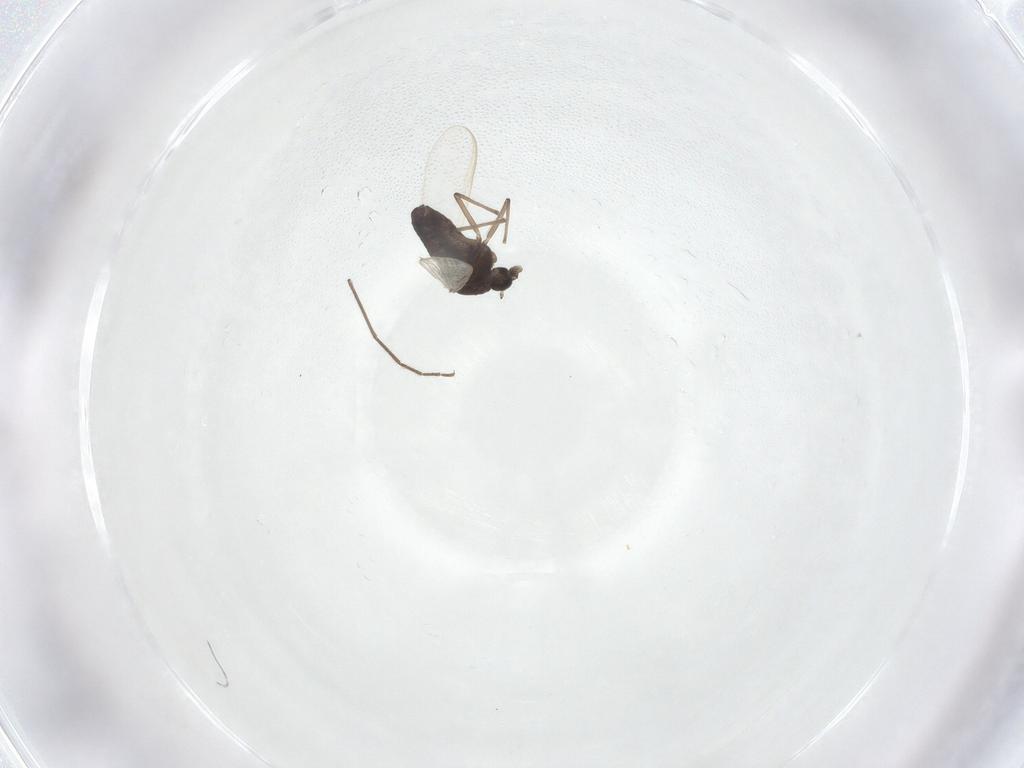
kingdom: Animalia
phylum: Arthropoda
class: Insecta
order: Diptera
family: Chironomidae
